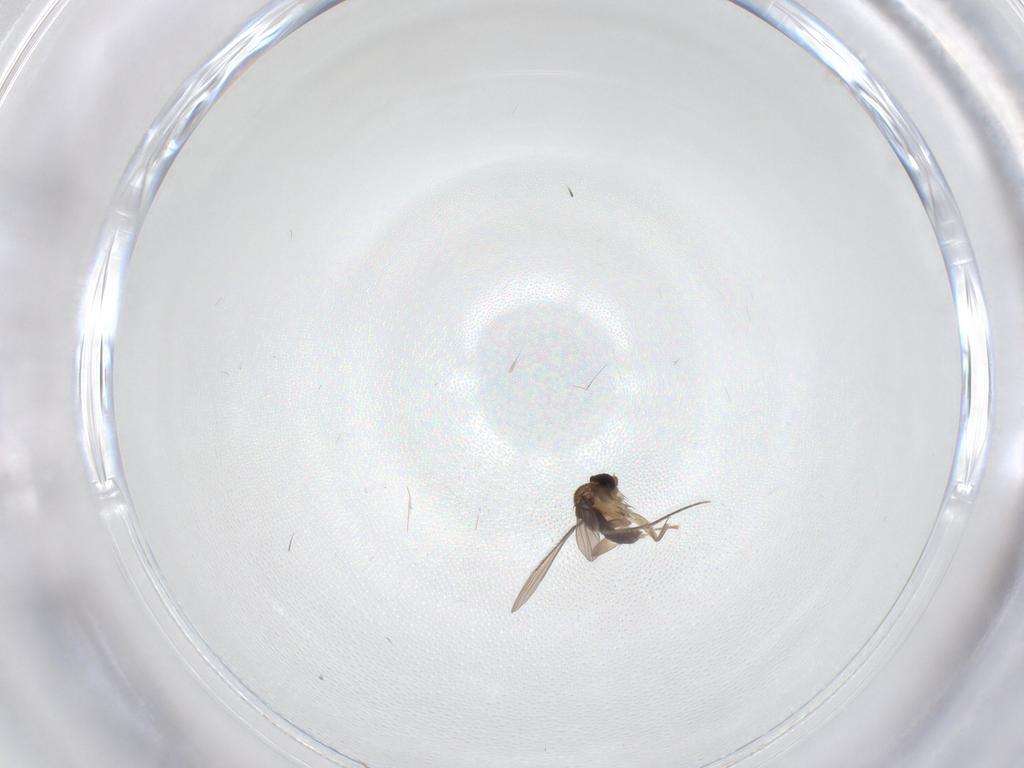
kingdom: Animalia
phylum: Arthropoda
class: Insecta
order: Diptera
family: Phoridae
